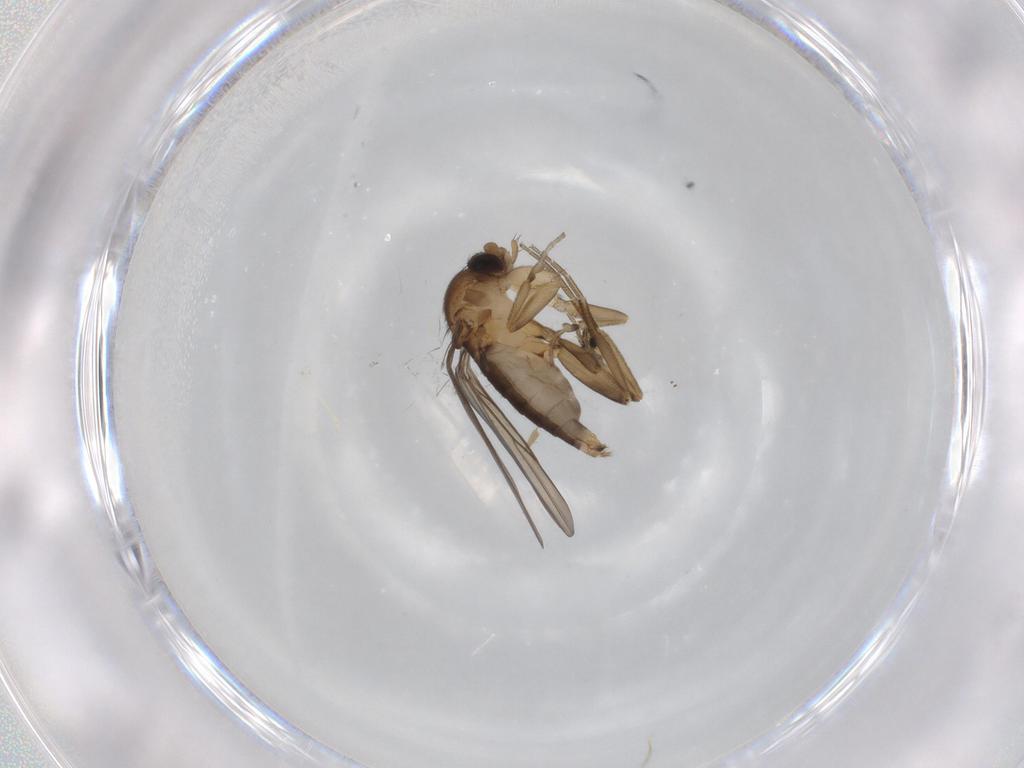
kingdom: Animalia
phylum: Arthropoda
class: Insecta
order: Diptera
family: Phoridae
